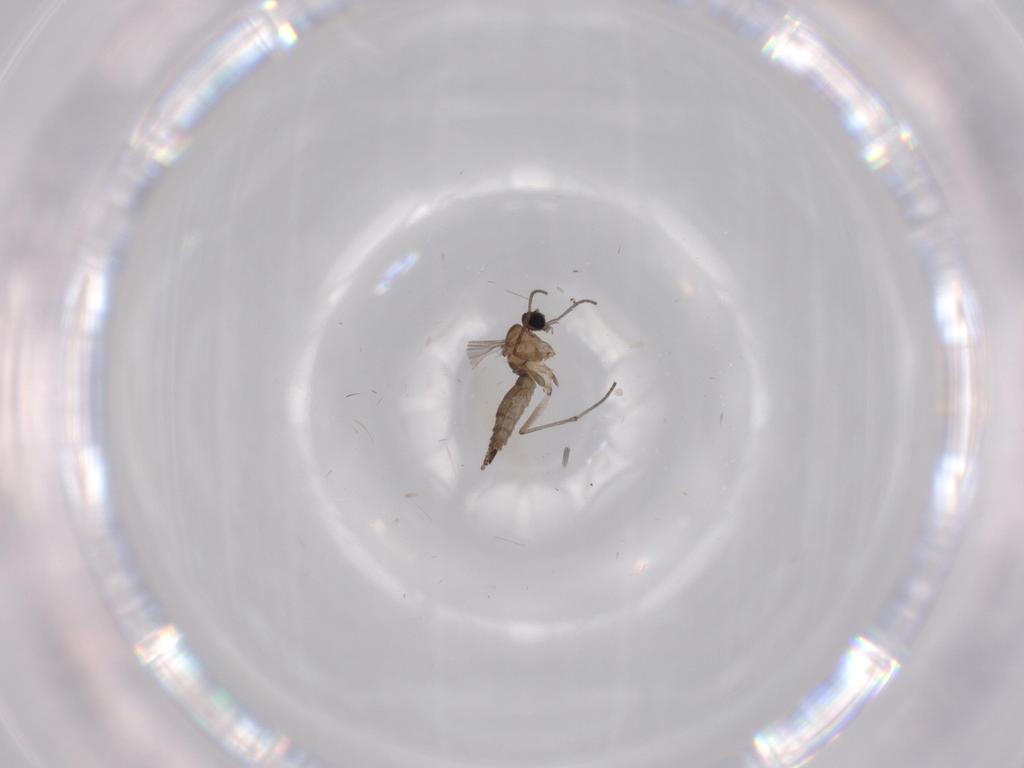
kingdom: Animalia
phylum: Arthropoda
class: Insecta
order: Diptera
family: Sciaridae
